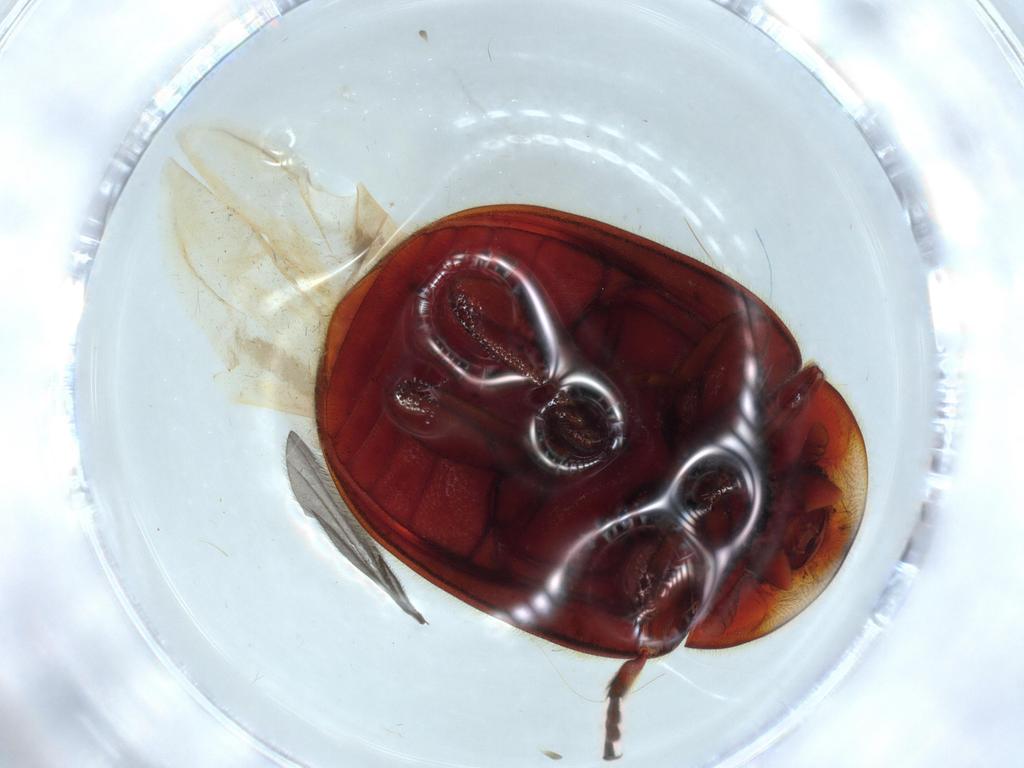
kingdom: Animalia
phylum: Arthropoda
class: Insecta
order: Coleoptera
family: Coccinellidae
